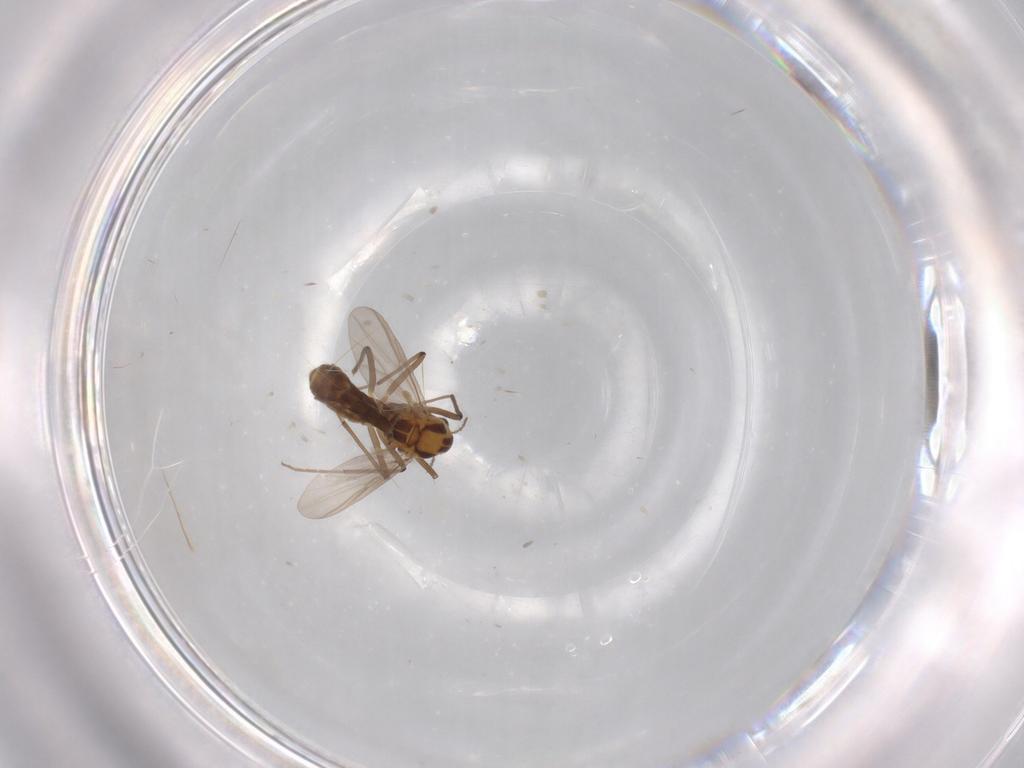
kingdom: Animalia
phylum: Arthropoda
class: Insecta
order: Diptera
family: Chironomidae
